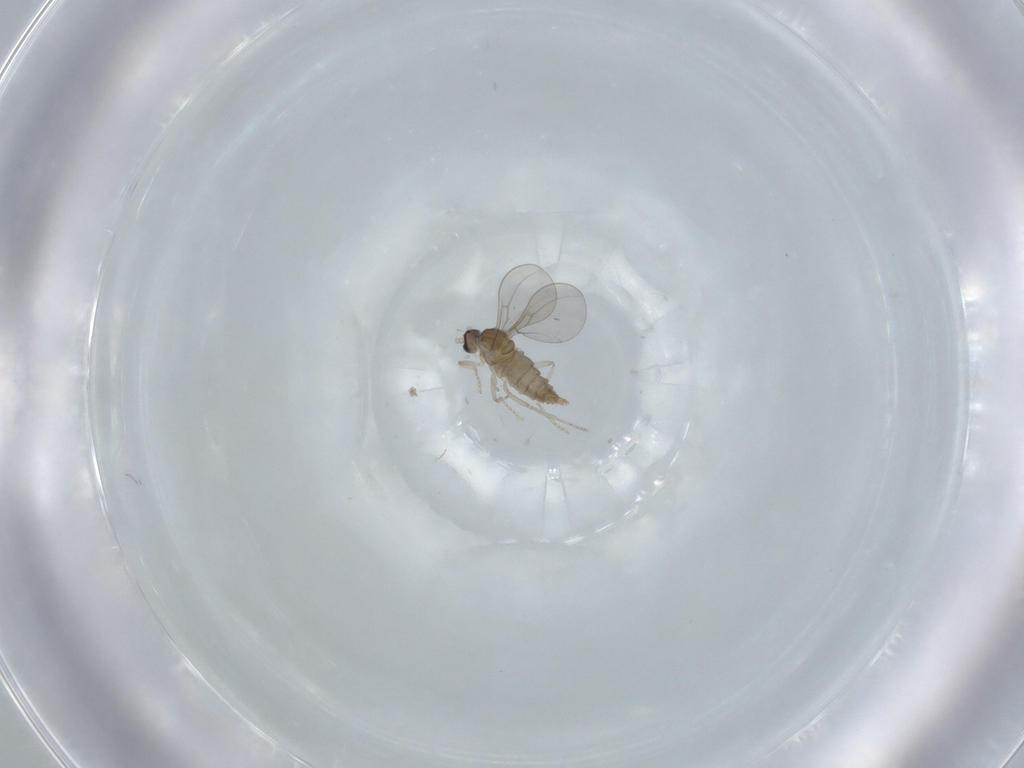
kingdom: Animalia
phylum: Arthropoda
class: Insecta
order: Diptera
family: Cecidomyiidae
